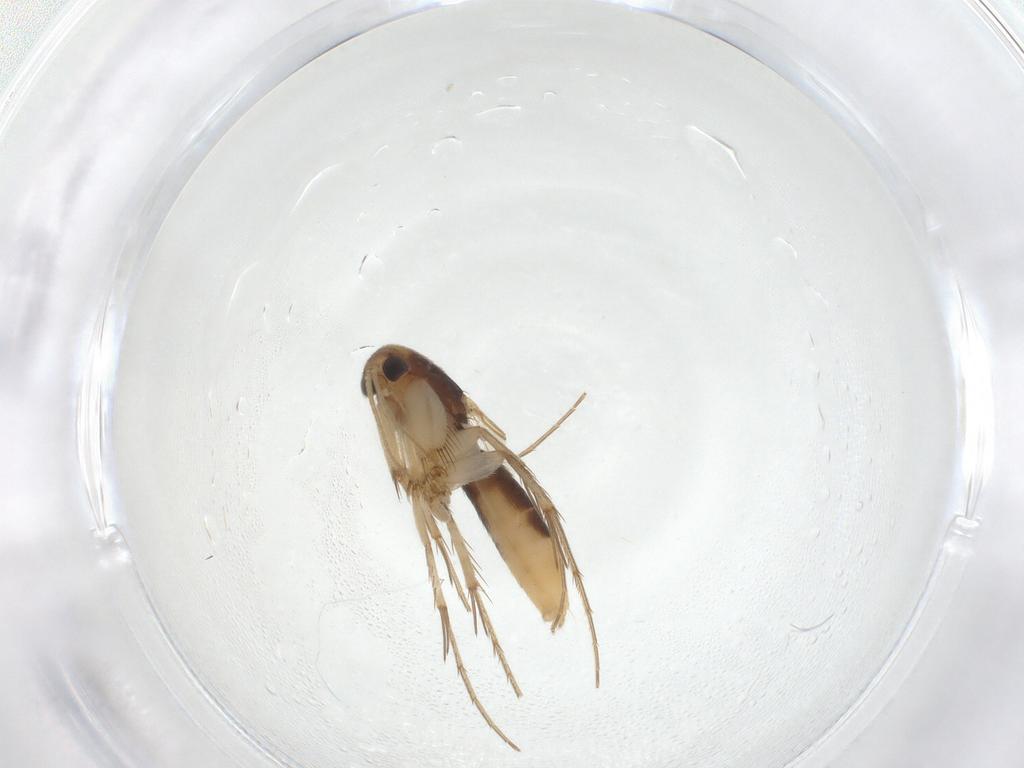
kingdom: Animalia
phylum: Arthropoda
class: Insecta
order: Diptera
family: Mycetophilidae
